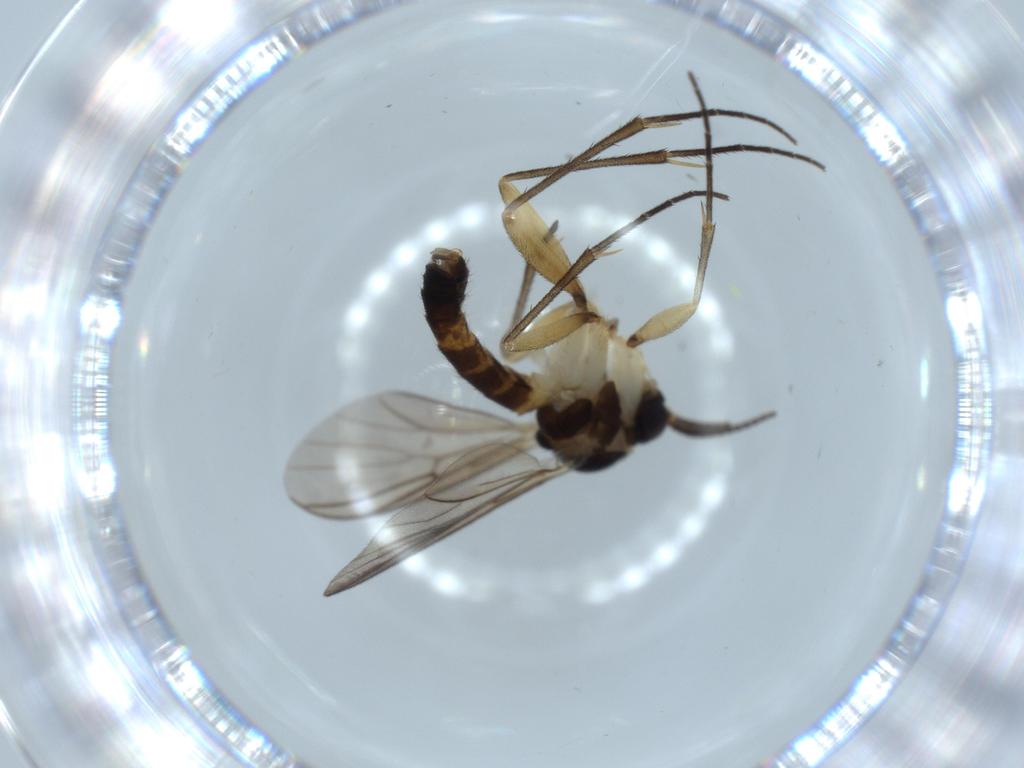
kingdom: Animalia
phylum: Arthropoda
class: Insecta
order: Diptera
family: Mycetophilidae
